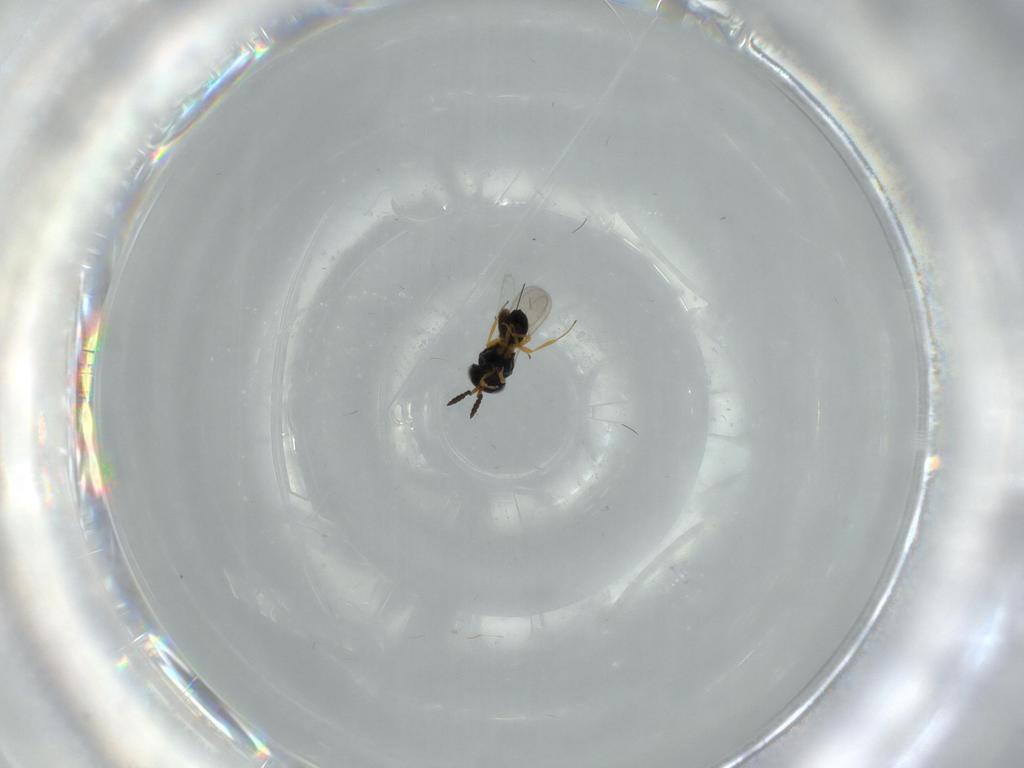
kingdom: Animalia
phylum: Arthropoda
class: Insecta
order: Hymenoptera
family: Scelionidae
